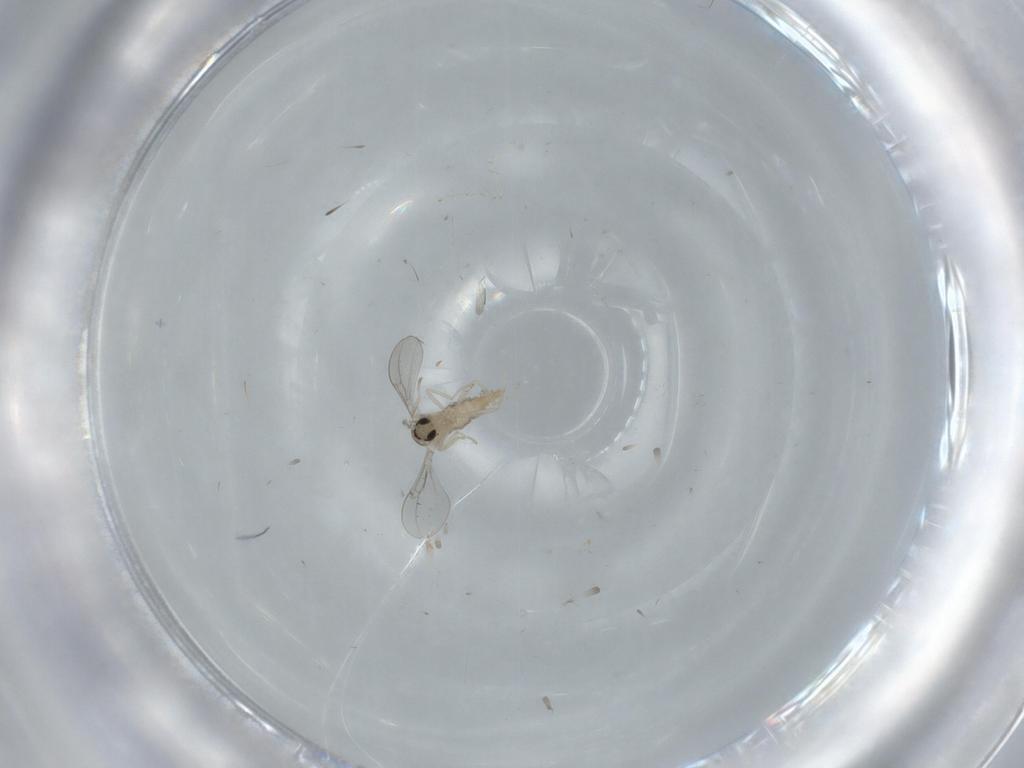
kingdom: Animalia
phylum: Arthropoda
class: Insecta
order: Diptera
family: Cecidomyiidae
